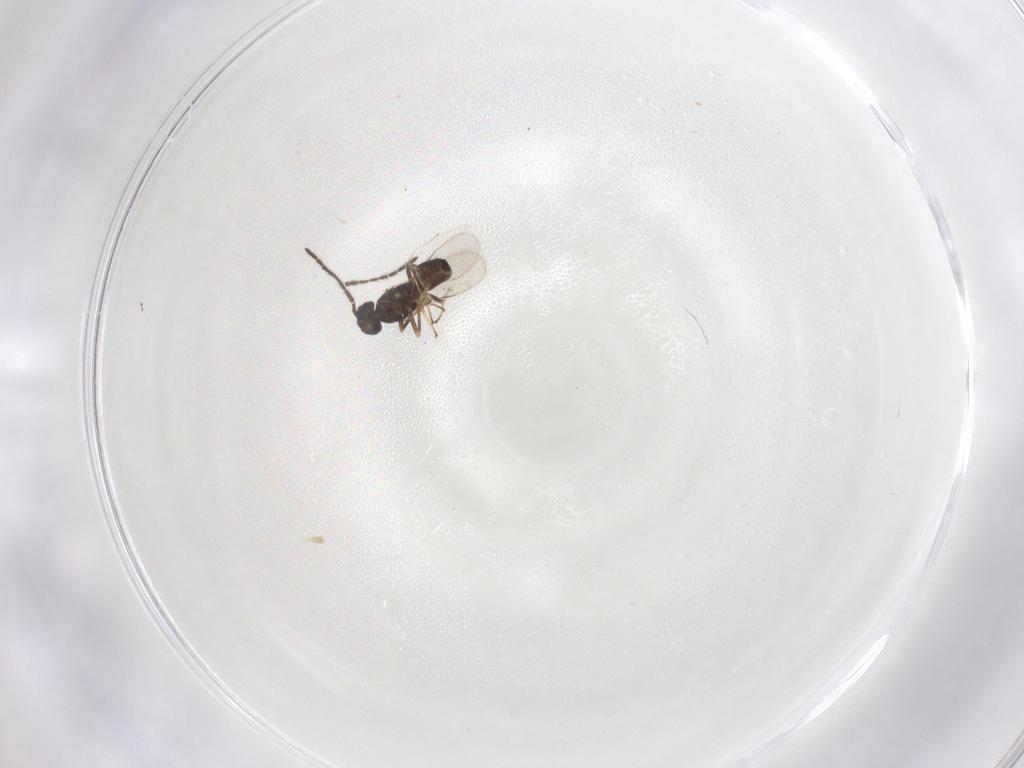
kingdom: Animalia
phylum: Arthropoda
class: Insecta
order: Hymenoptera
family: Encyrtidae
